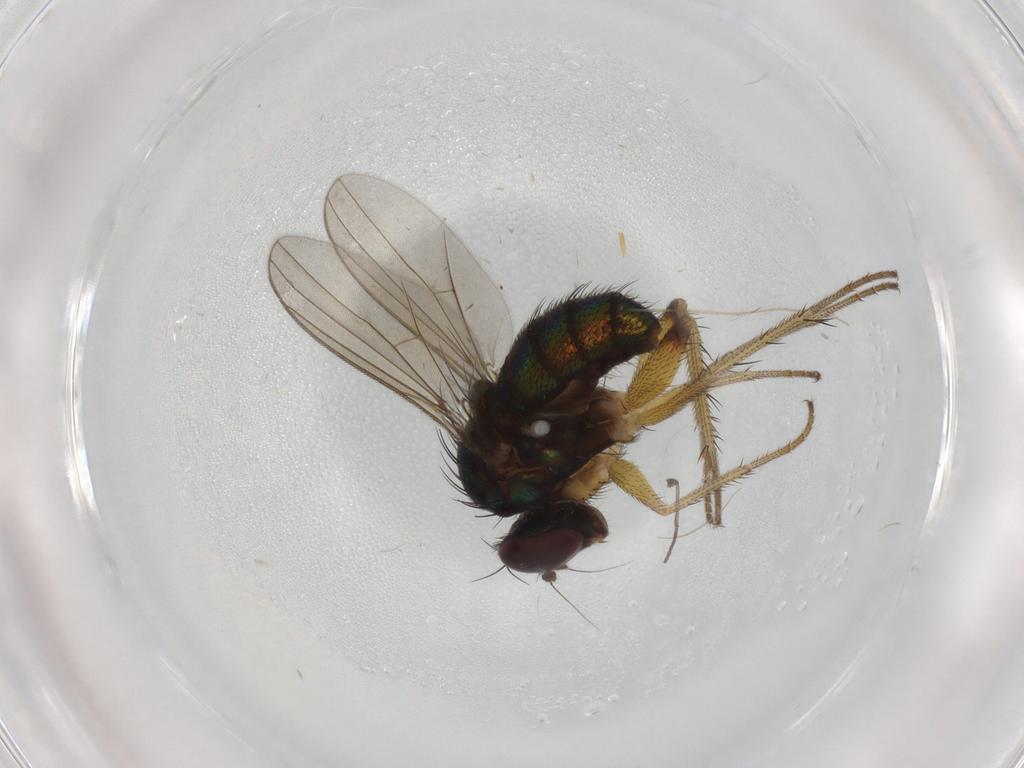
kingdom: Animalia
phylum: Arthropoda
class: Insecta
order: Diptera
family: Dolichopodidae
